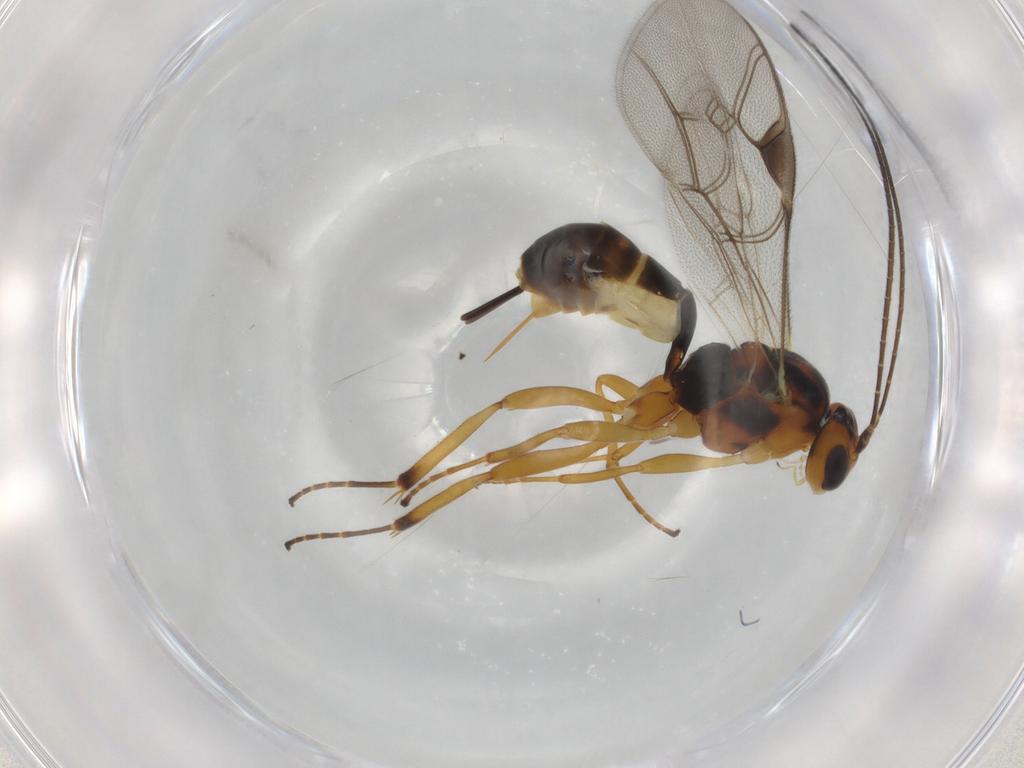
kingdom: Animalia
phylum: Arthropoda
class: Insecta
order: Hymenoptera
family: Ichneumonidae
